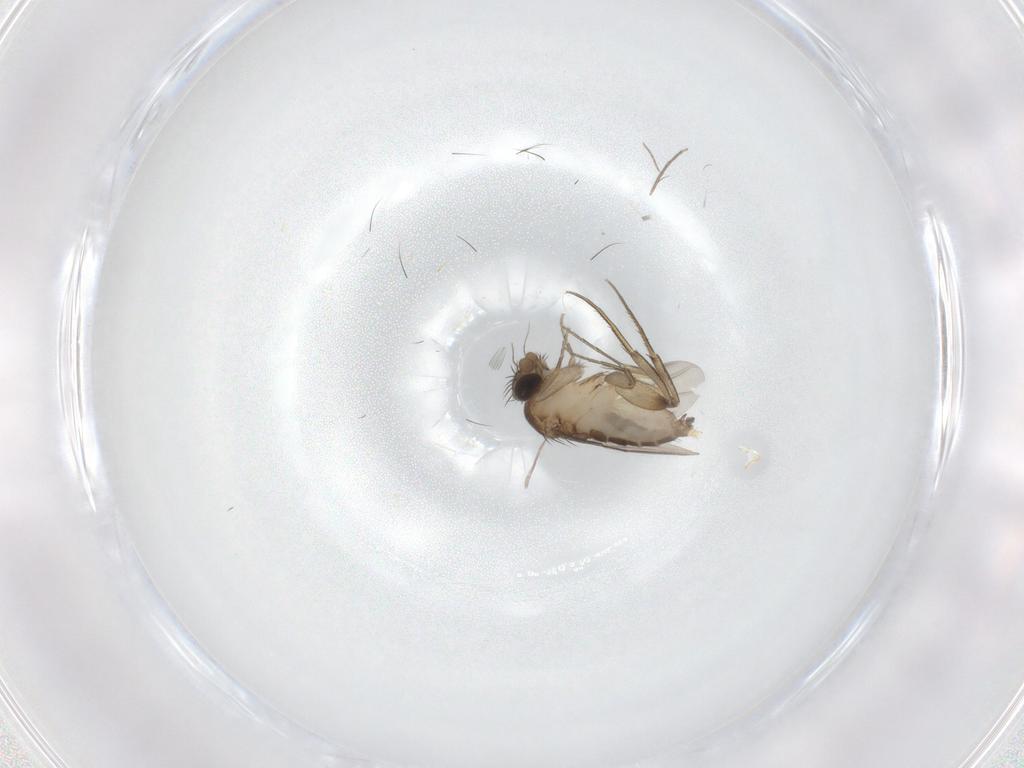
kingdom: Animalia
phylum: Arthropoda
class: Insecta
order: Diptera
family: Phoridae
